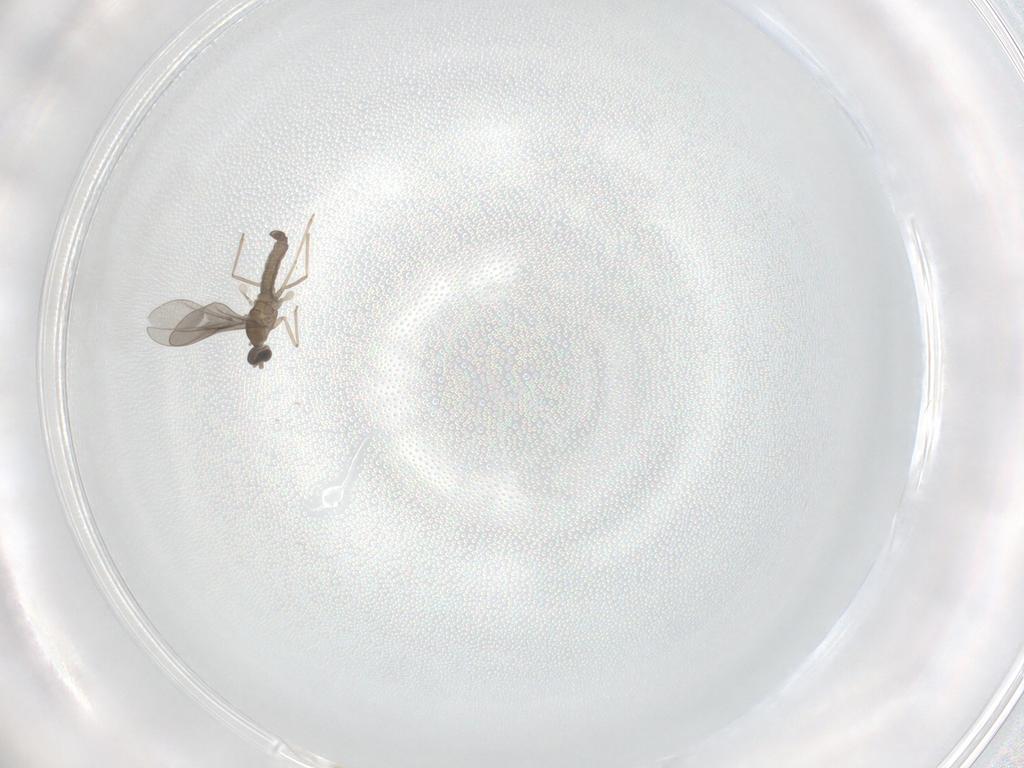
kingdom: Animalia
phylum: Arthropoda
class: Insecta
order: Diptera
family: Cecidomyiidae
